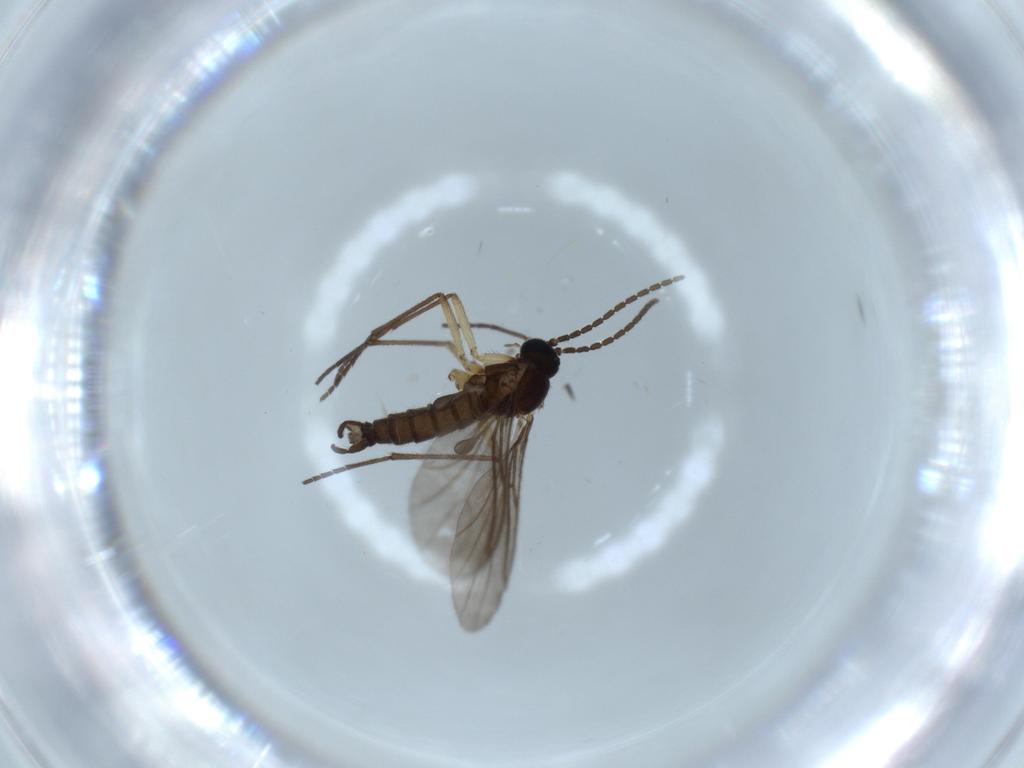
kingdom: Animalia
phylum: Arthropoda
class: Insecta
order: Diptera
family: Sciaridae
